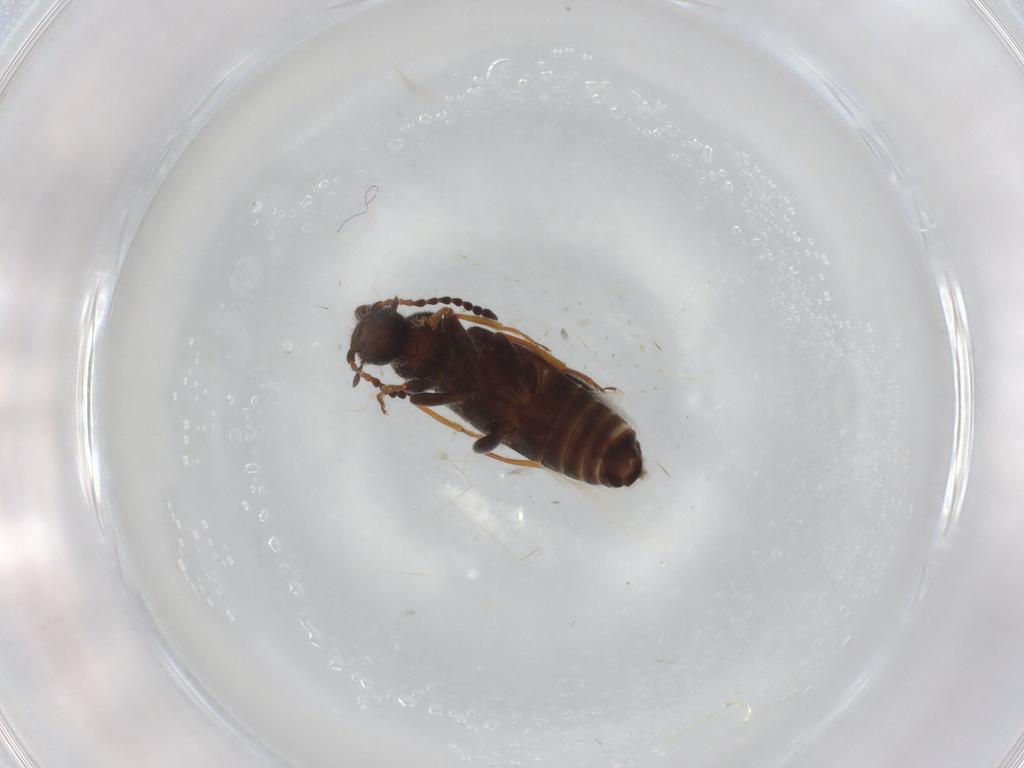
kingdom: Animalia
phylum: Arthropoda
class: Insecta
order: Coleoptera
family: Anthicidae
